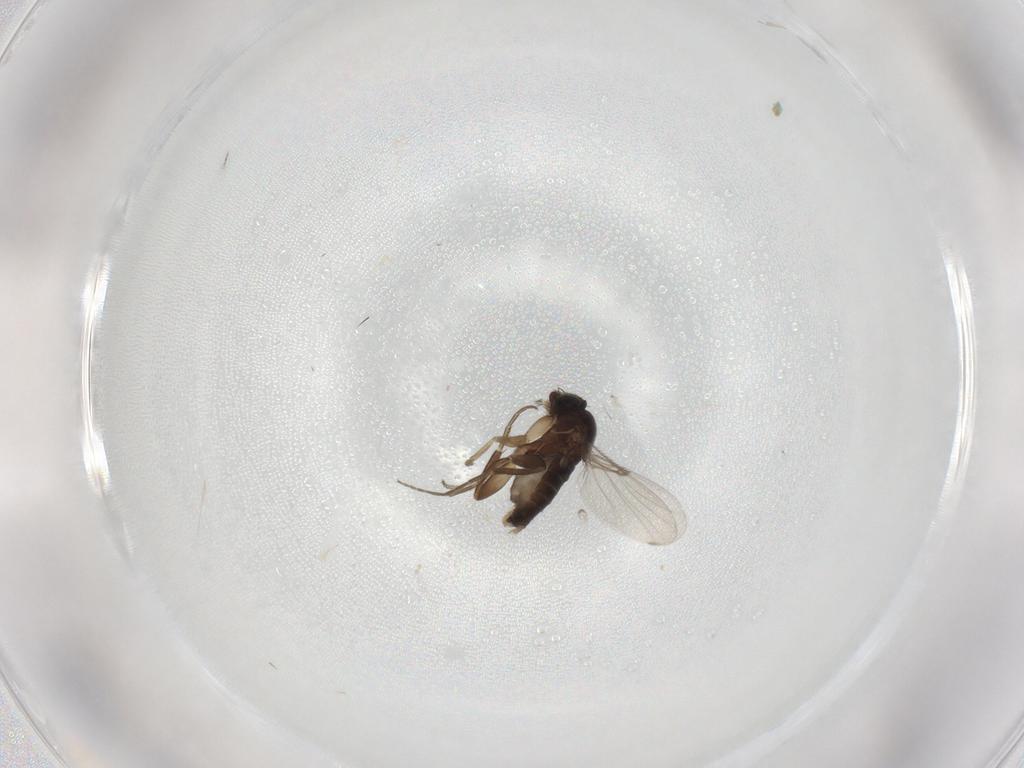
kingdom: Animalia
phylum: Arthropoda
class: Insecta
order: Diptera
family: Phoridae
